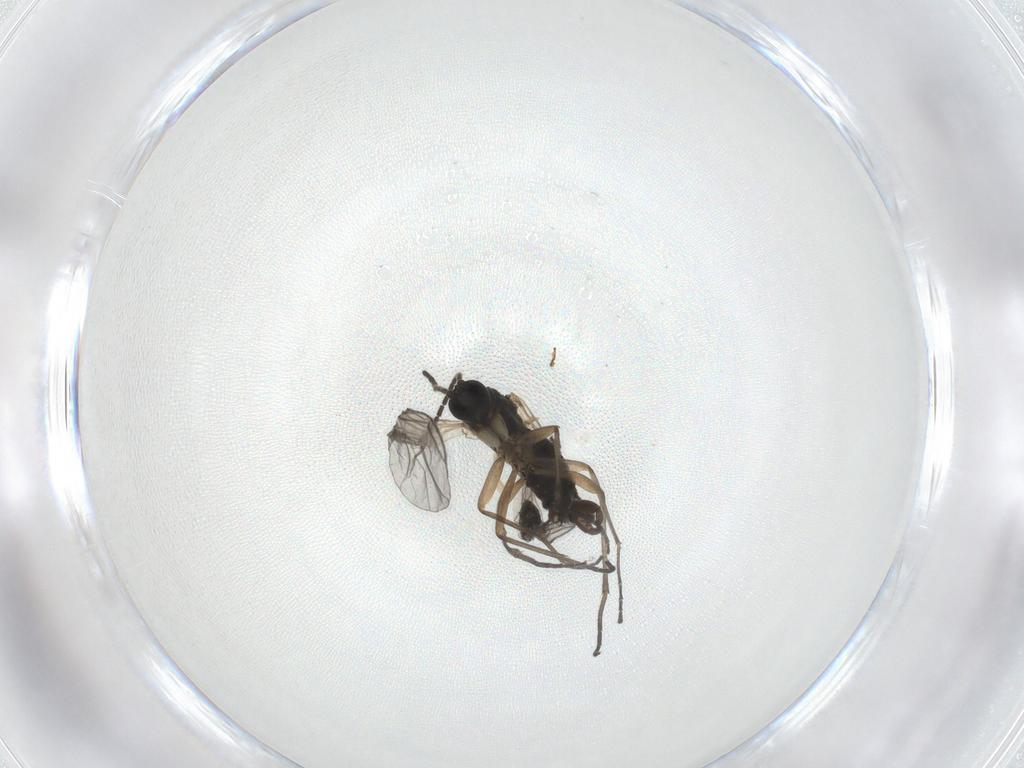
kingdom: Animalia
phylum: Arthropoda
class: Insecta
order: Diptera
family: Sciaridae
